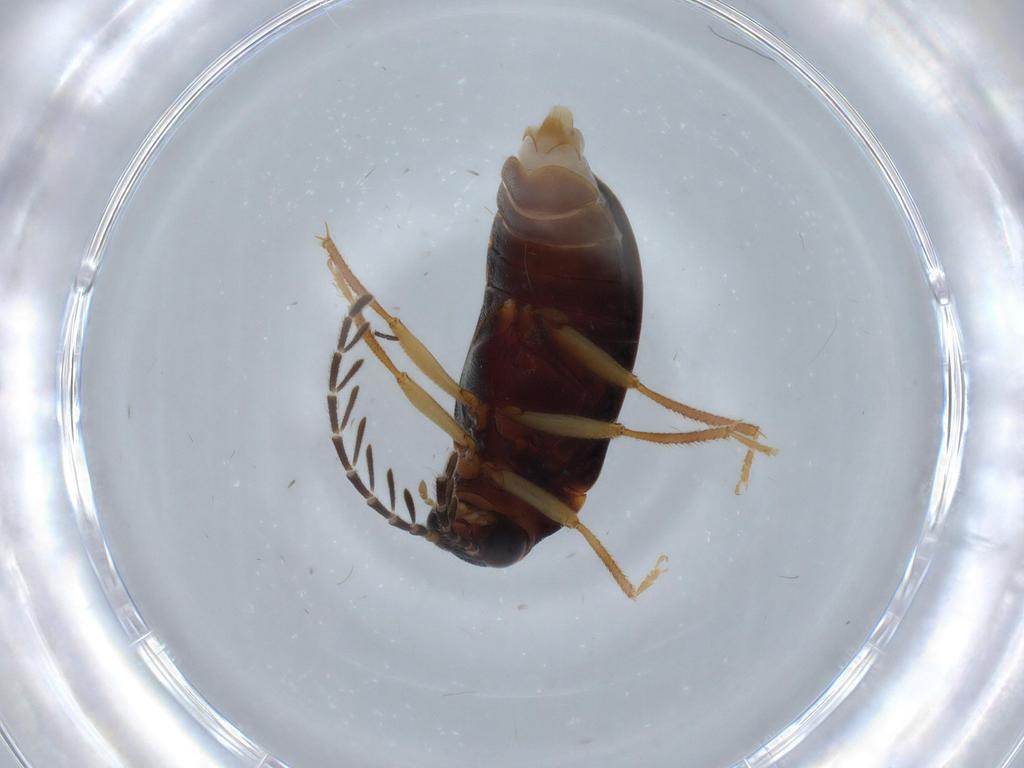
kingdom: Animalia
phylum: Arthropoda
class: Insecta
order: Coleoptera
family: Ptilodactylidae
